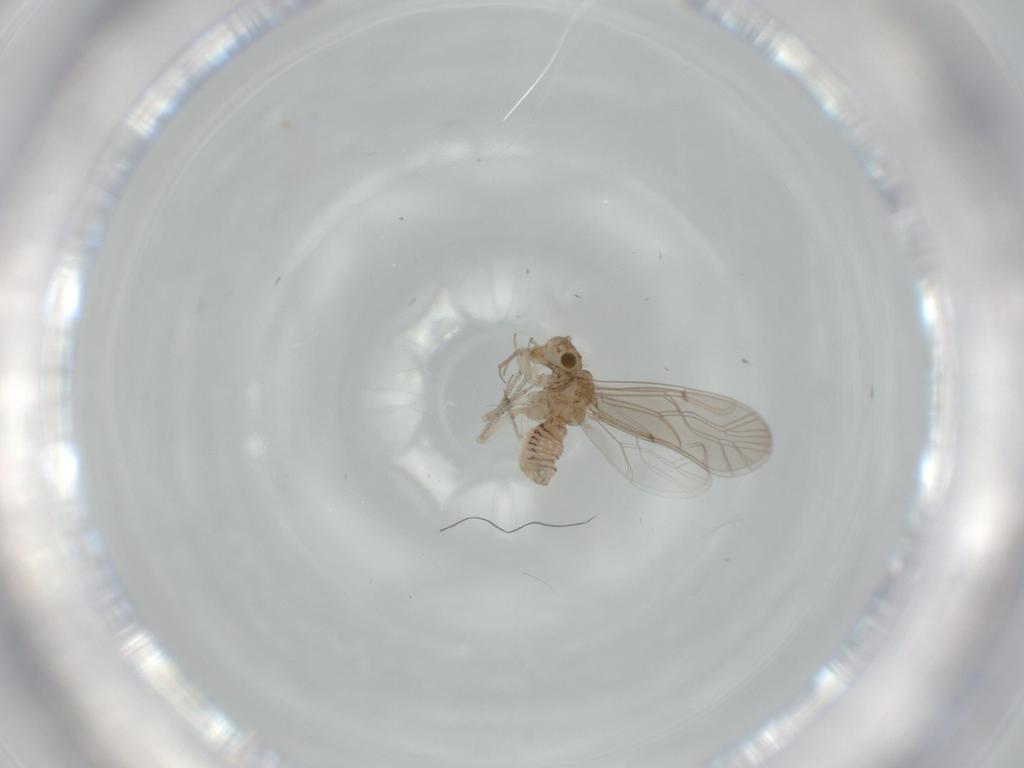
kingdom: Animalia
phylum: Arthropoda
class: Insecta
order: Psocodea
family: Lachesillidae
